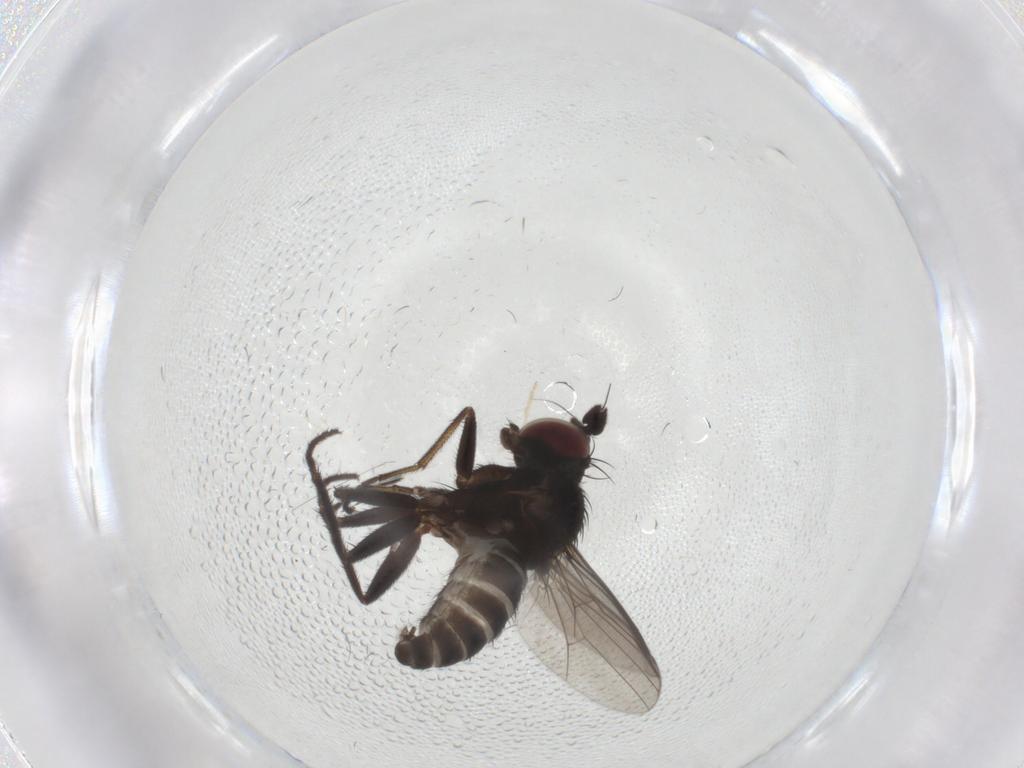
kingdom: Animalia
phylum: Arthropoda
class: Insecta
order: Diptera
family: Dolichopodidae
